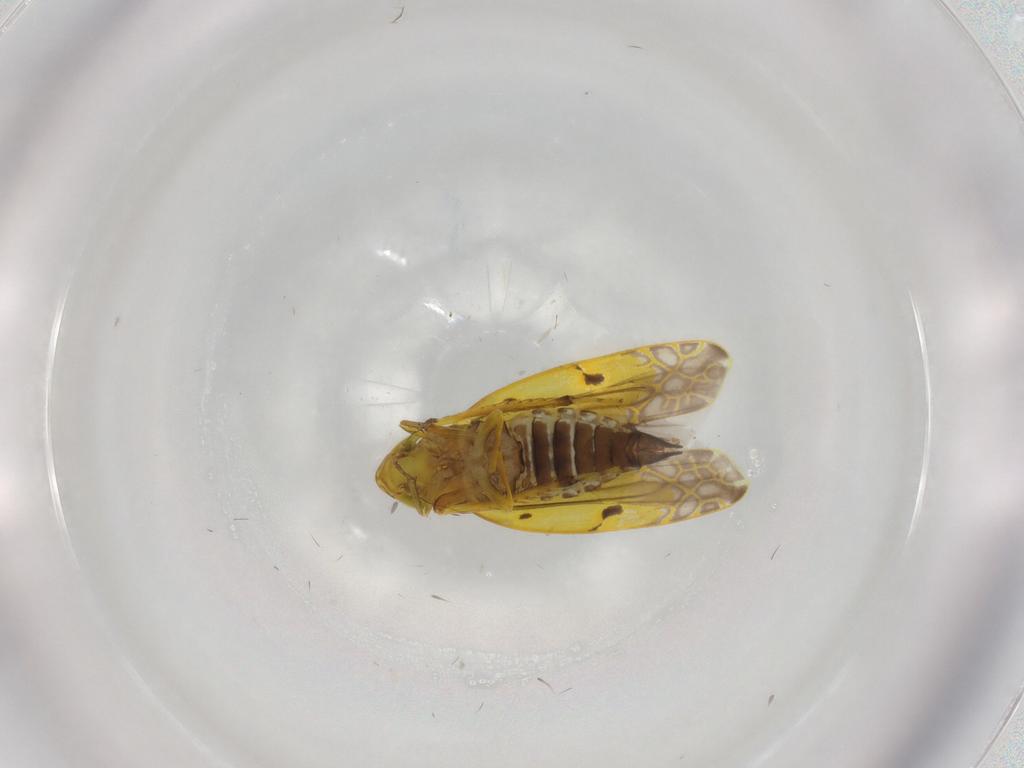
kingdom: Animalia
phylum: Arthropoda
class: Insecta
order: Hemiptera
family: Cicadellidae
